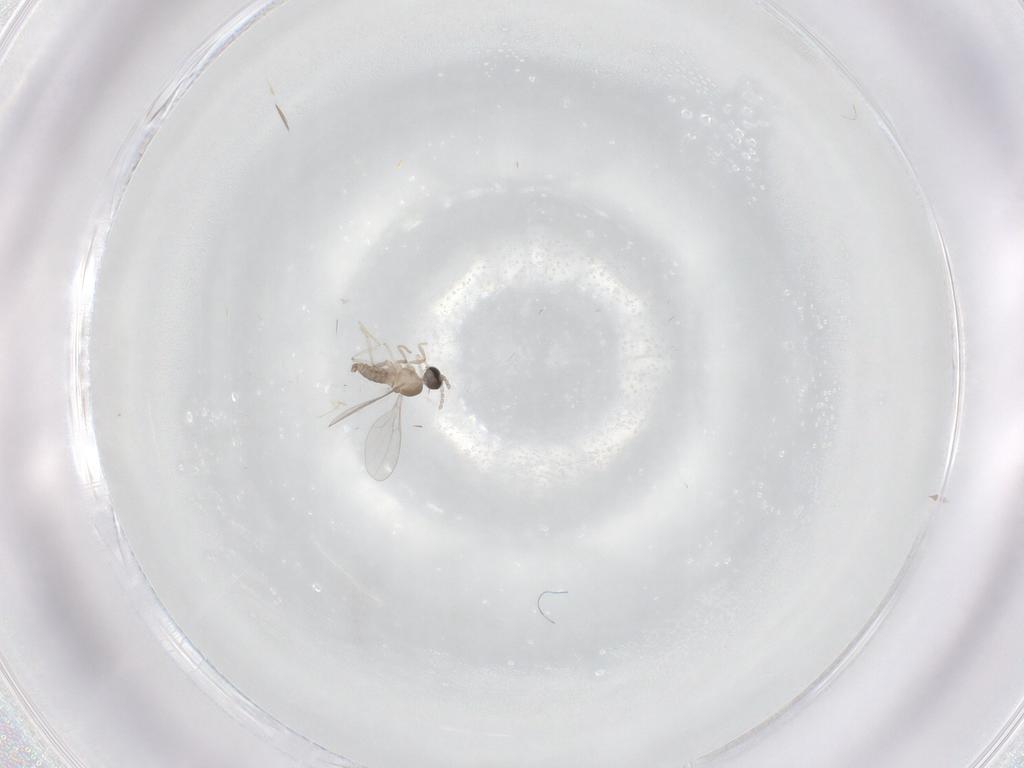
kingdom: Animalia
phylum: Arthropoda
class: Insecta
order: Diptera
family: Cecidomyiidae
